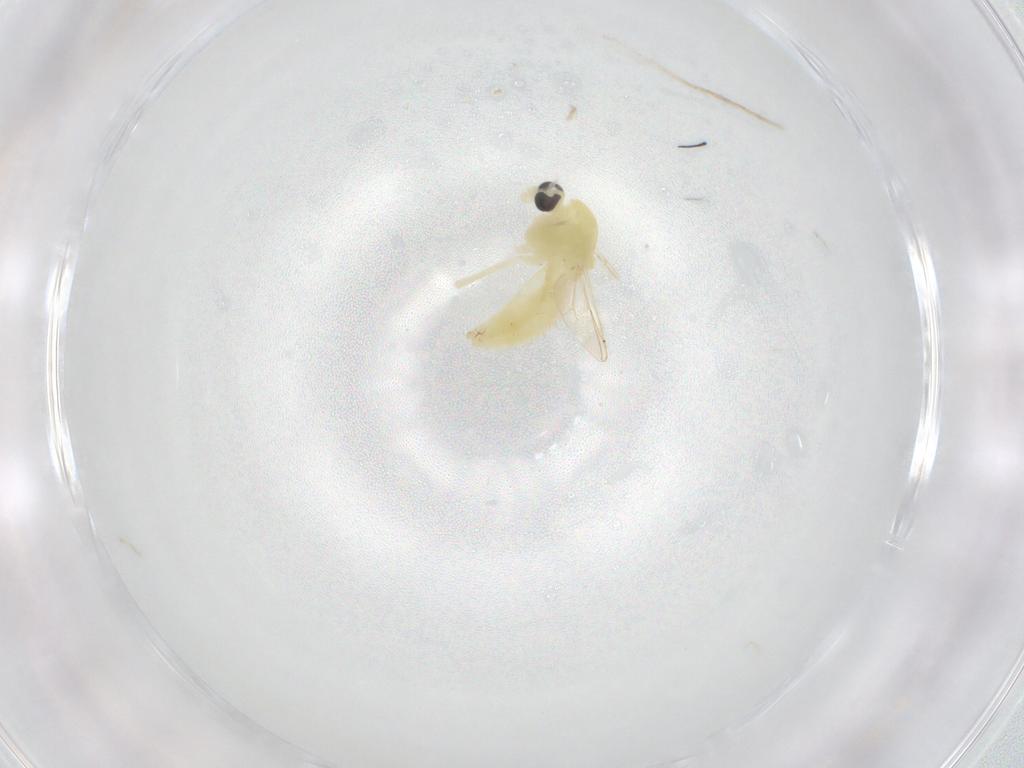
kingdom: Animalia
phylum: Arthropoda
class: Insecta
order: Diptera
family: Chironomidae
